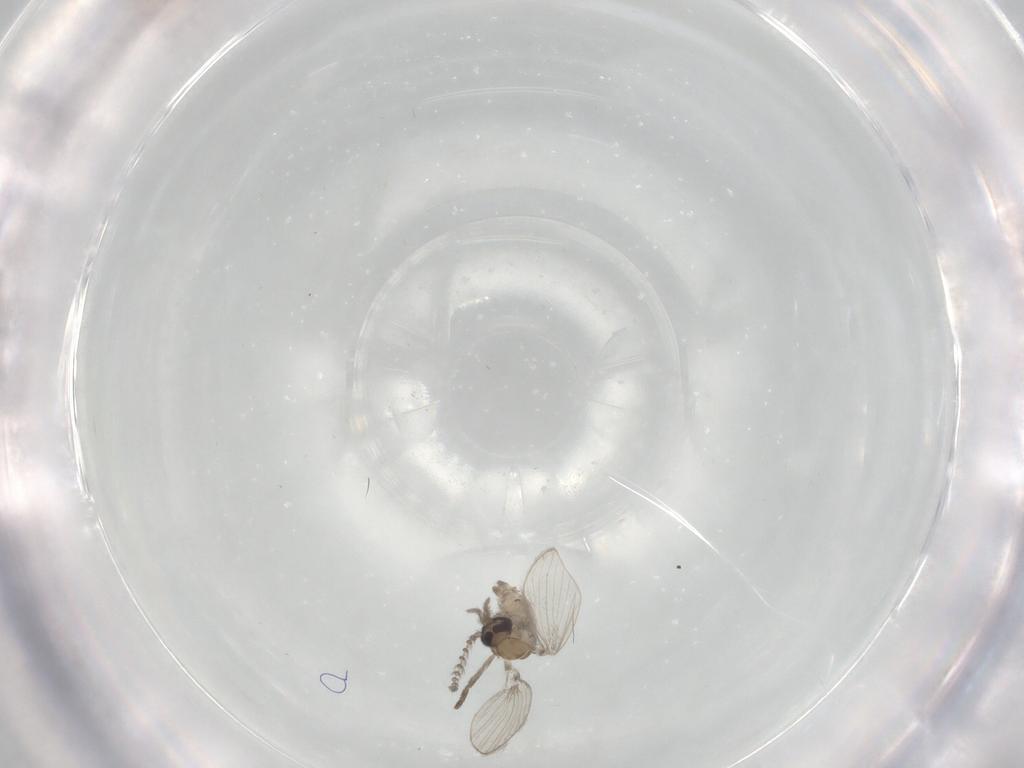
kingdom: Animalia
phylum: Arthropoda
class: Insecta
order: Diptera
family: Psychodidae
